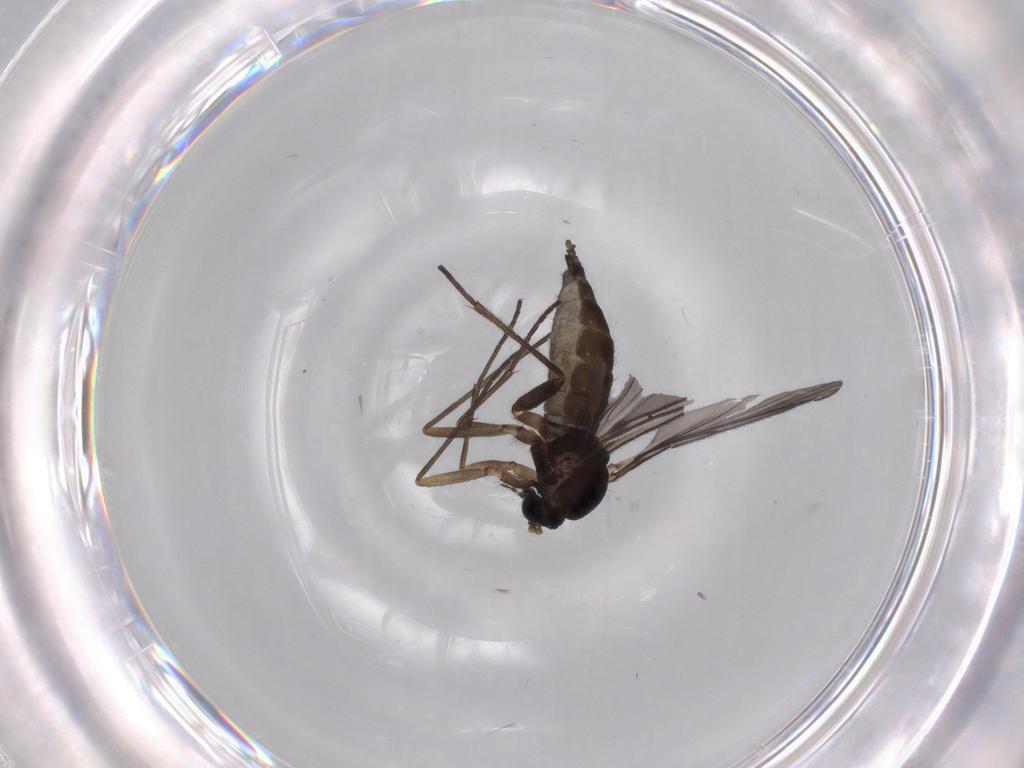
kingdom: Animalia
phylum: Arthropoda
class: Insecta
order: Diptera
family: Sciaridae
